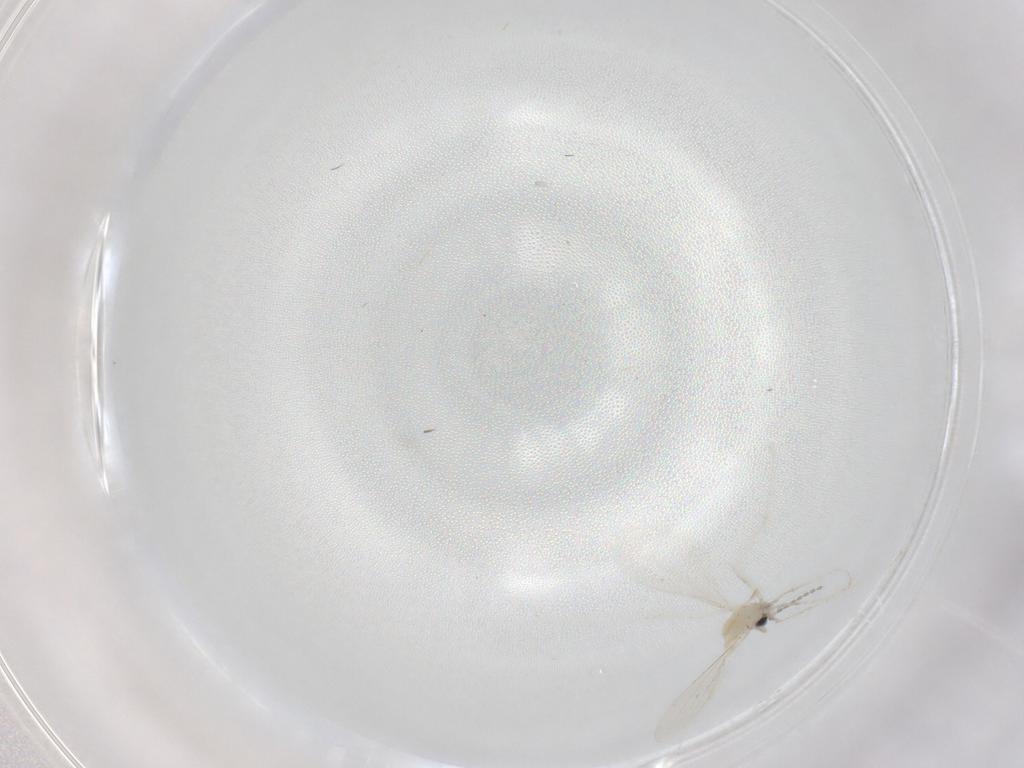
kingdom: Animalia
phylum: Arthropoda
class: Insecta
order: Diptera
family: Cecidomyiidae
